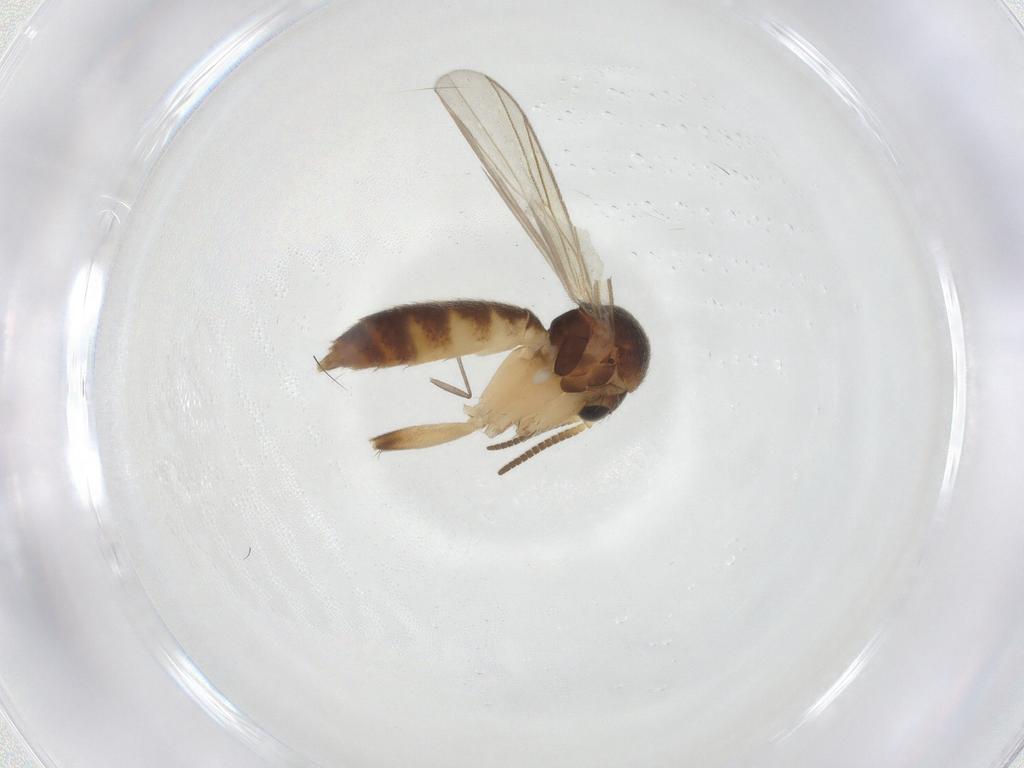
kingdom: Animalia
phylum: Arthropoda
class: Insecta
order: Diptera
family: Sciaridae
